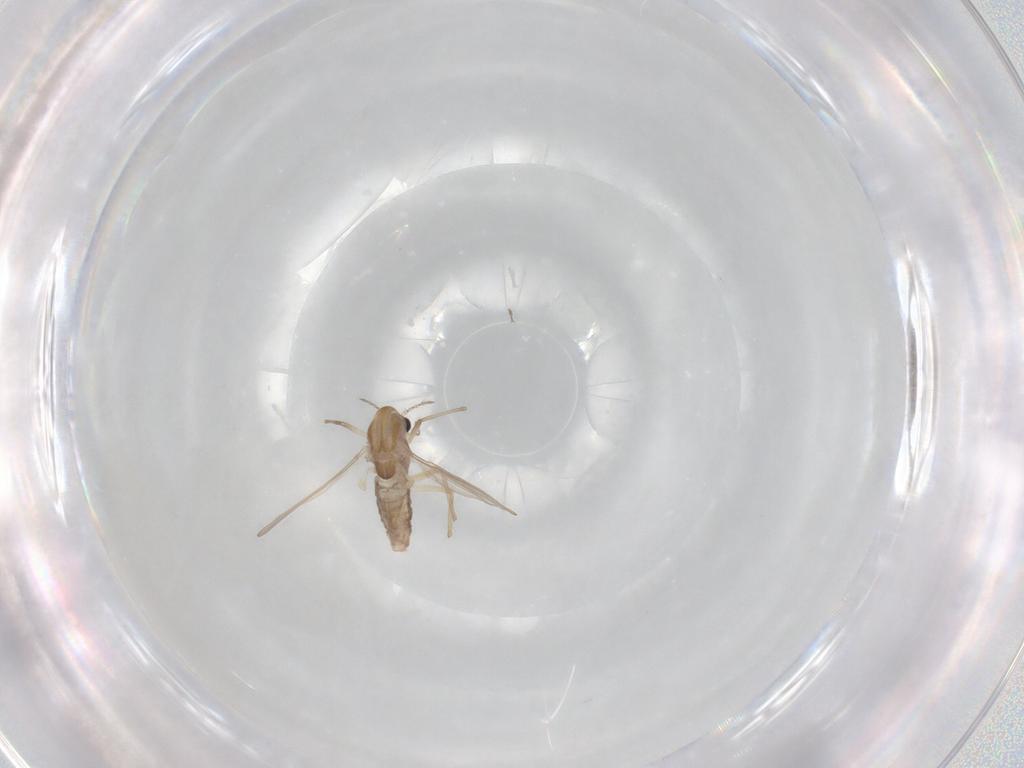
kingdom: Animalia
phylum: Arthropoda
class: Insecta
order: Diptera
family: Chironomidae
